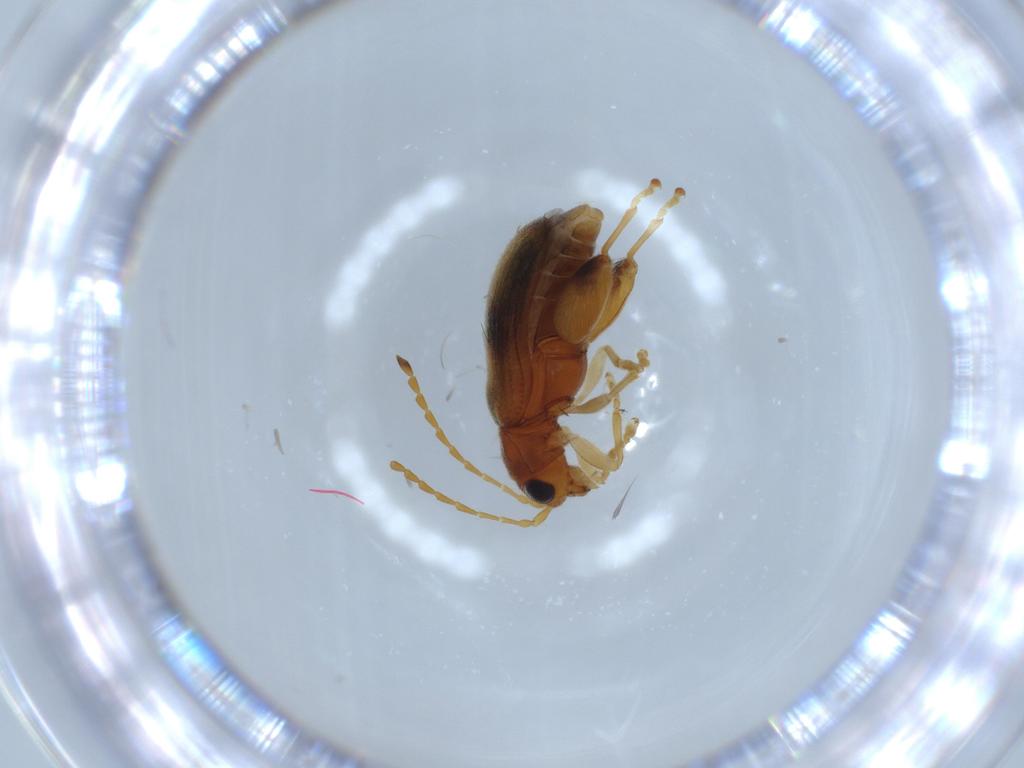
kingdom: Animalia
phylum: Arthropoda
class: Insecta
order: Coleoptera
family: Chrysomelidae
